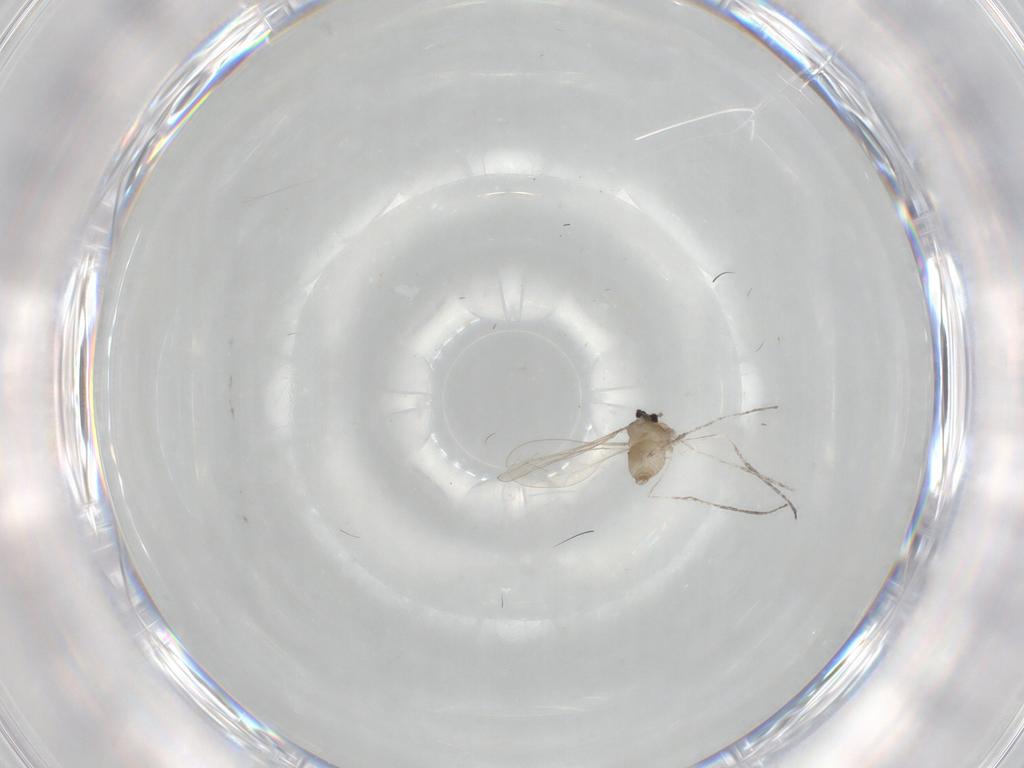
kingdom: Animalia
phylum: Arthropoda
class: Insecta
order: Diptera
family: Cecidomyiidae
